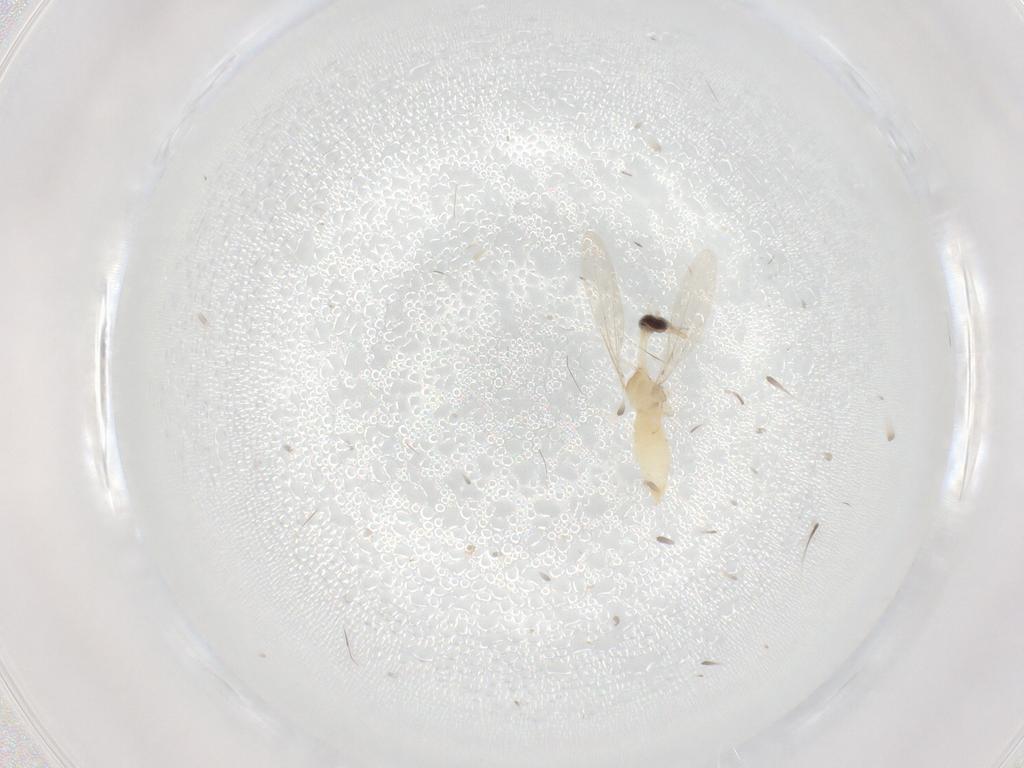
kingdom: Animalia
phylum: Arthropoda
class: Insecta
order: Diptera
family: Cecidomyiidae
